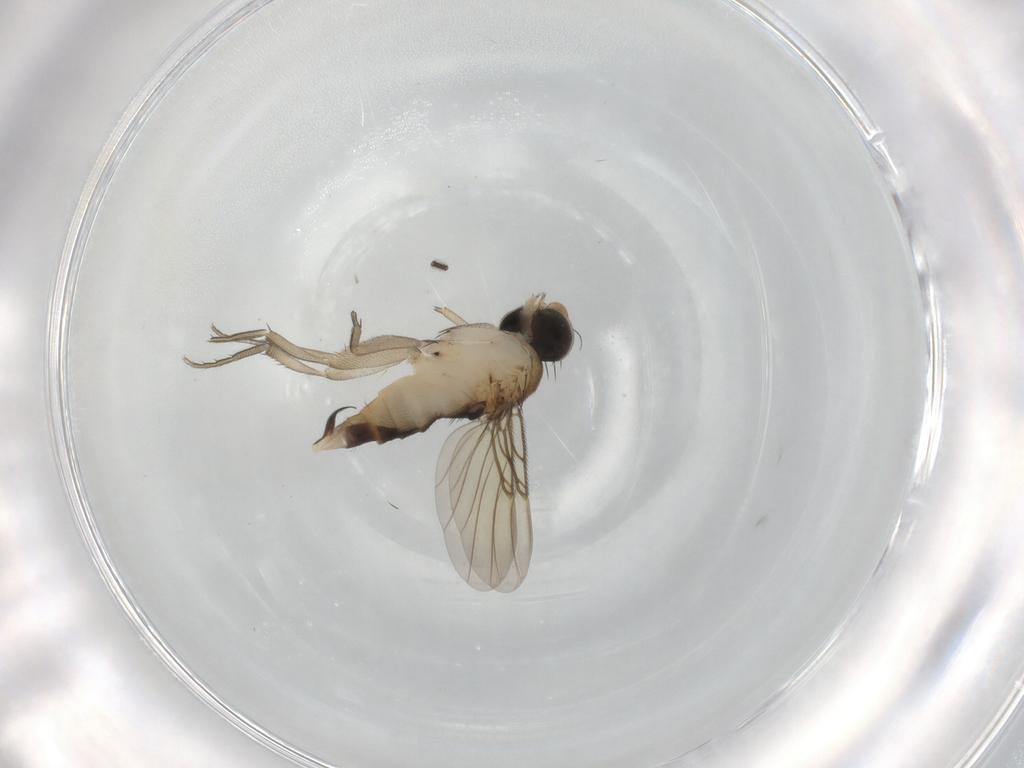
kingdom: Animalia
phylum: Arthropoda
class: Insecta
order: Diptera
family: Phoridae
